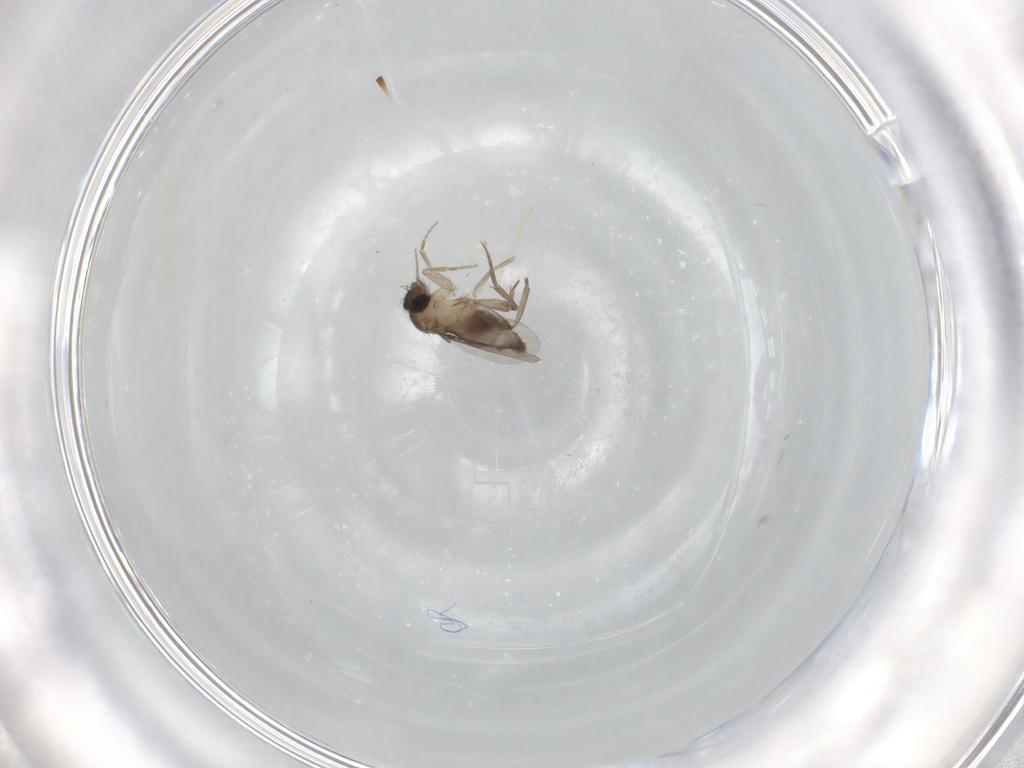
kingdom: Animalia
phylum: Arthropoda
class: Insecta
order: Diptera
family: Phoridae
